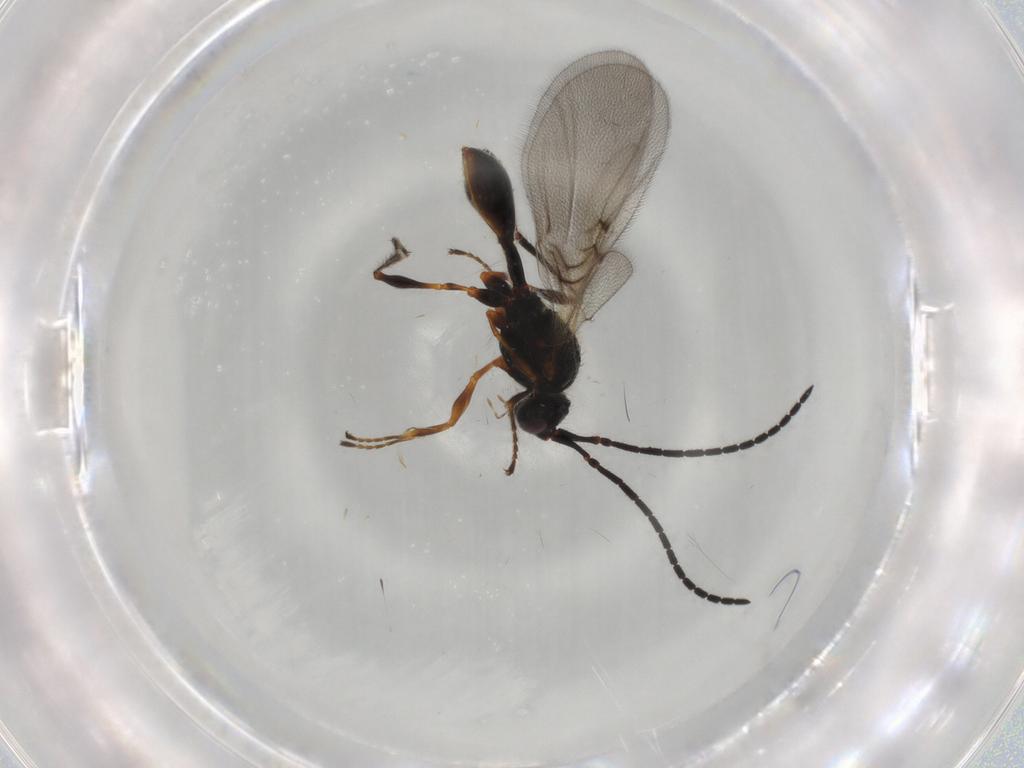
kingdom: Animalia
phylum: Arthropoda
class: Insecta
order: Hymenoptera
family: Diapriidae
